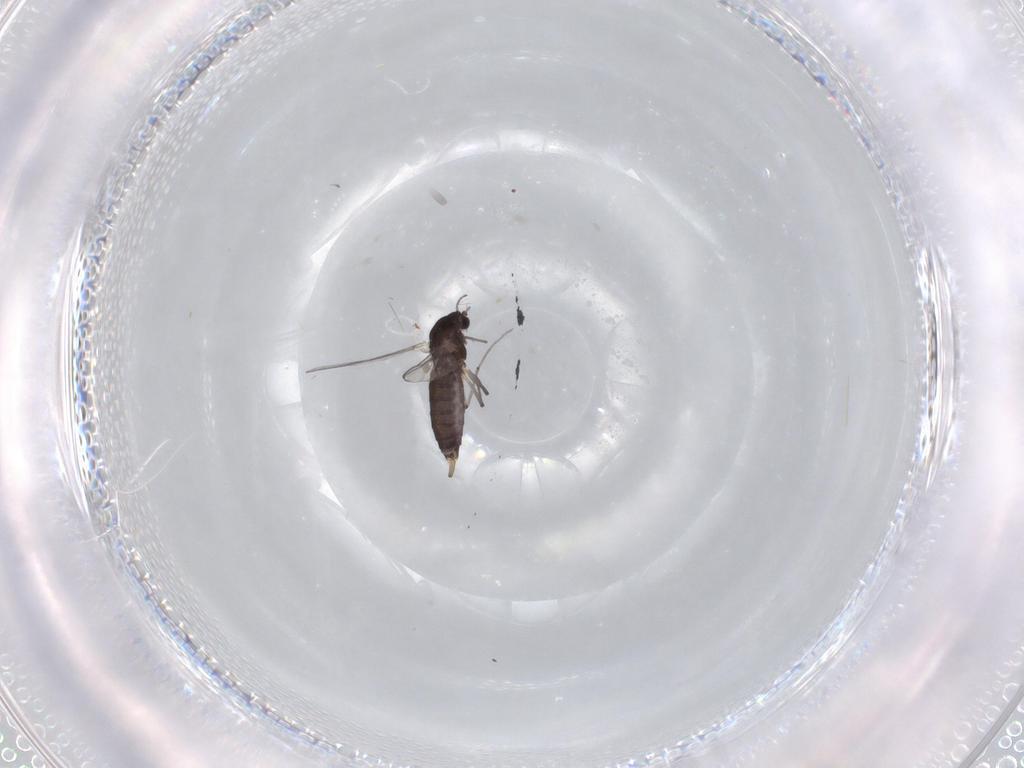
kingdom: Animalia
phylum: Arthropoda
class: Insecta
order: Diptera
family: Chironomidae
